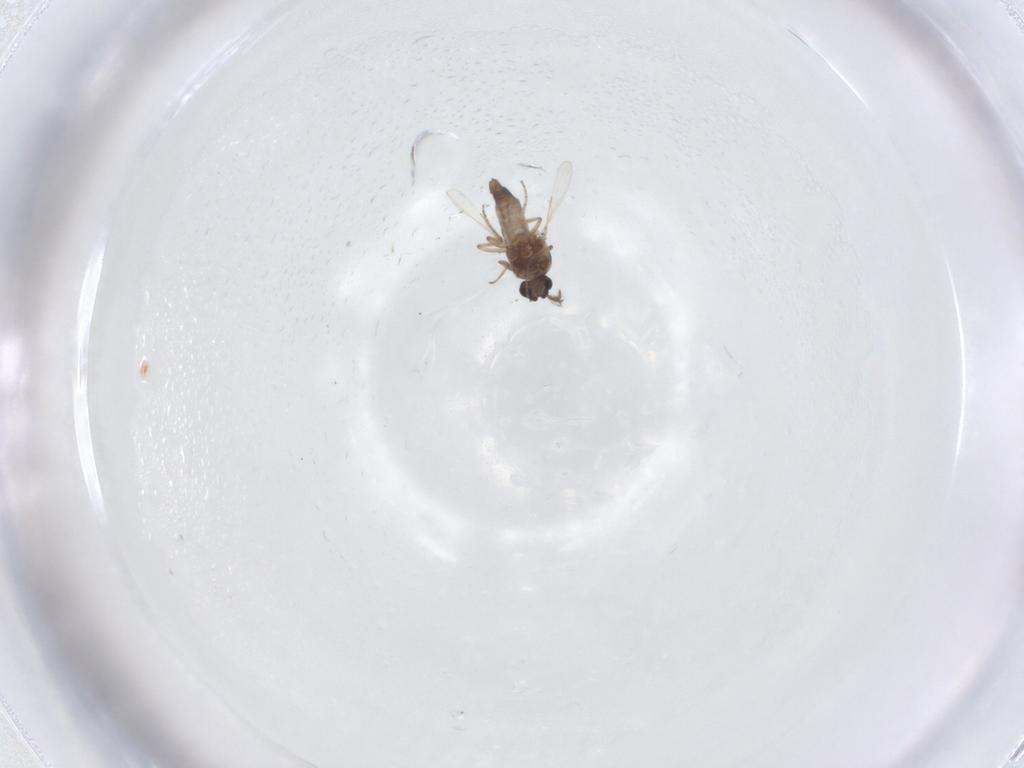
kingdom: Animalia
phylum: Arthropoda
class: Insecta
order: Diptera
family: Ceratopogonidae
